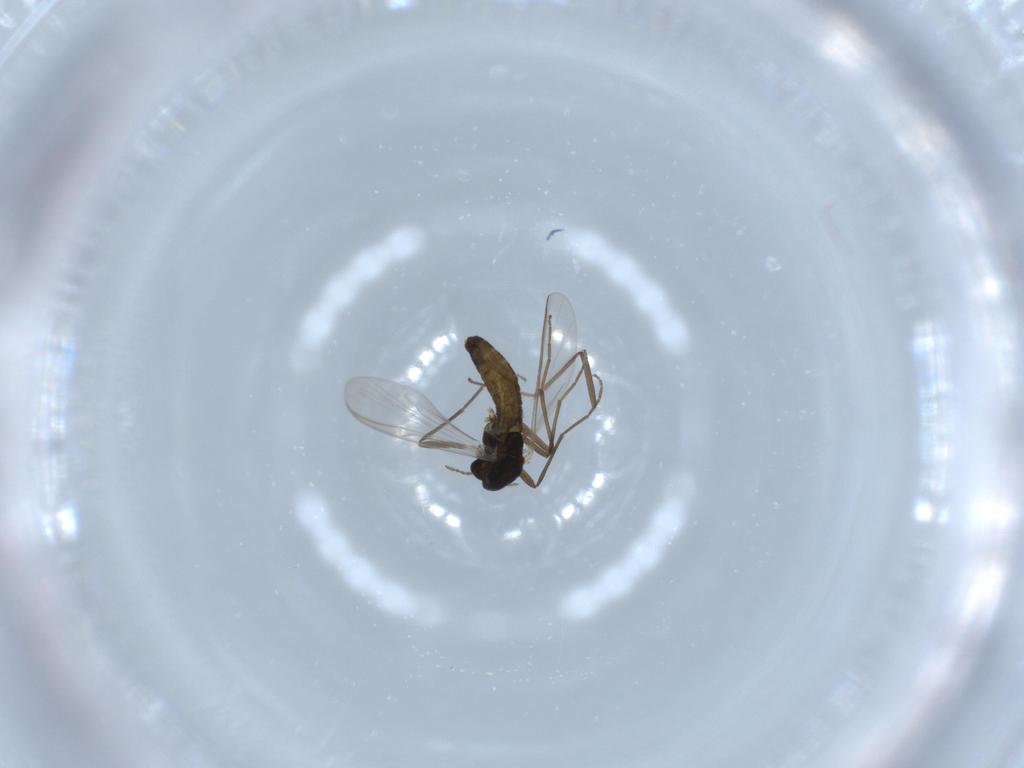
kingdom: Animalia
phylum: Arthropoda
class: Insecta
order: Diptera
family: Chironomidae
